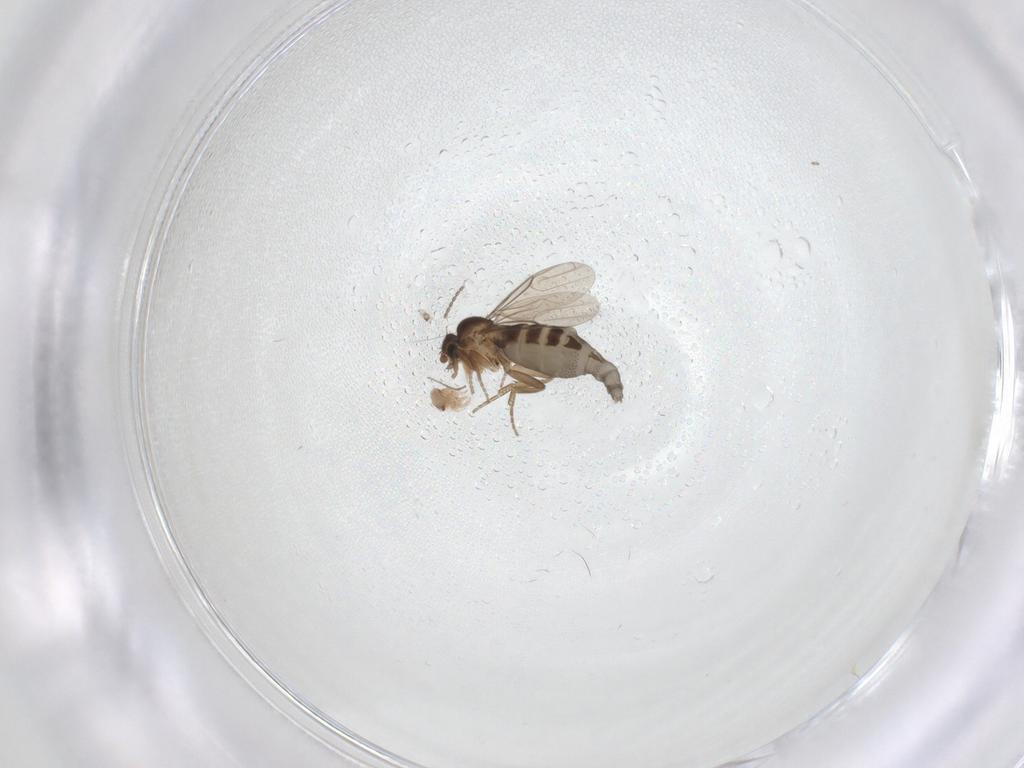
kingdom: Animalia
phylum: Arthropoda
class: Insecta
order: Diptera
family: Phoridae
